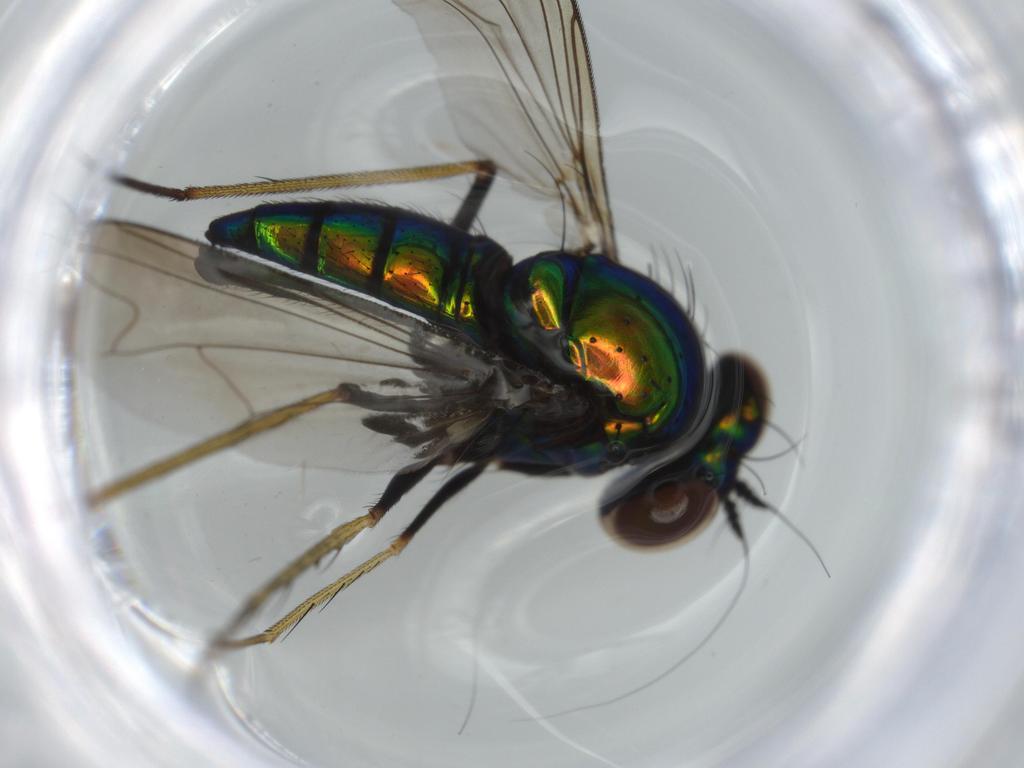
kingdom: Animalia
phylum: Arthropoda
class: Insecta
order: Diptera
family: Dolichopodidae
